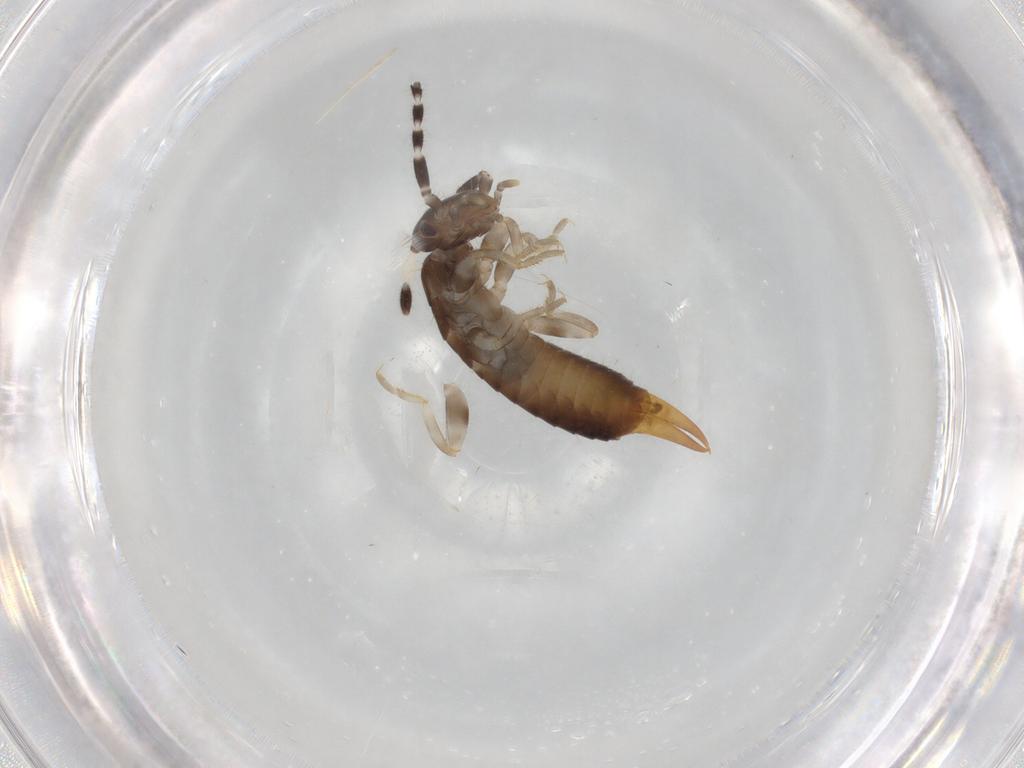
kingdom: Animalia
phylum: Arthropoda
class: Insecta
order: Dermaptera
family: Anisolabididae
